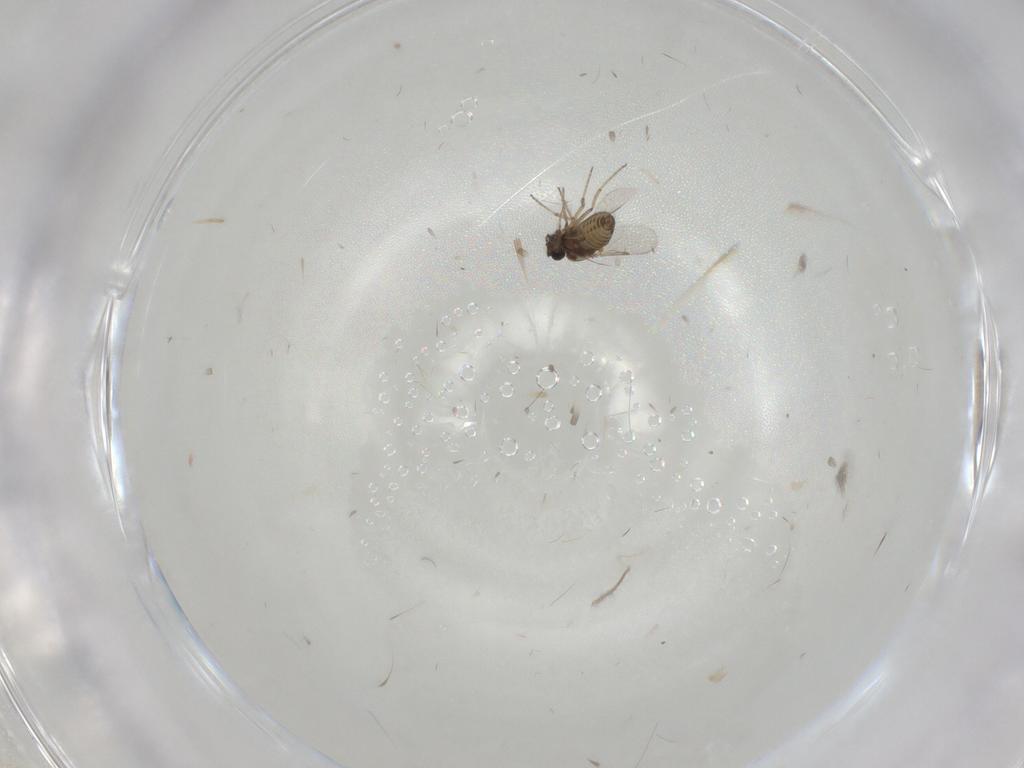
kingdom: Animalia
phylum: Arthropoda
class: Insecta
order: Diptera
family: Ceratopogonidae
